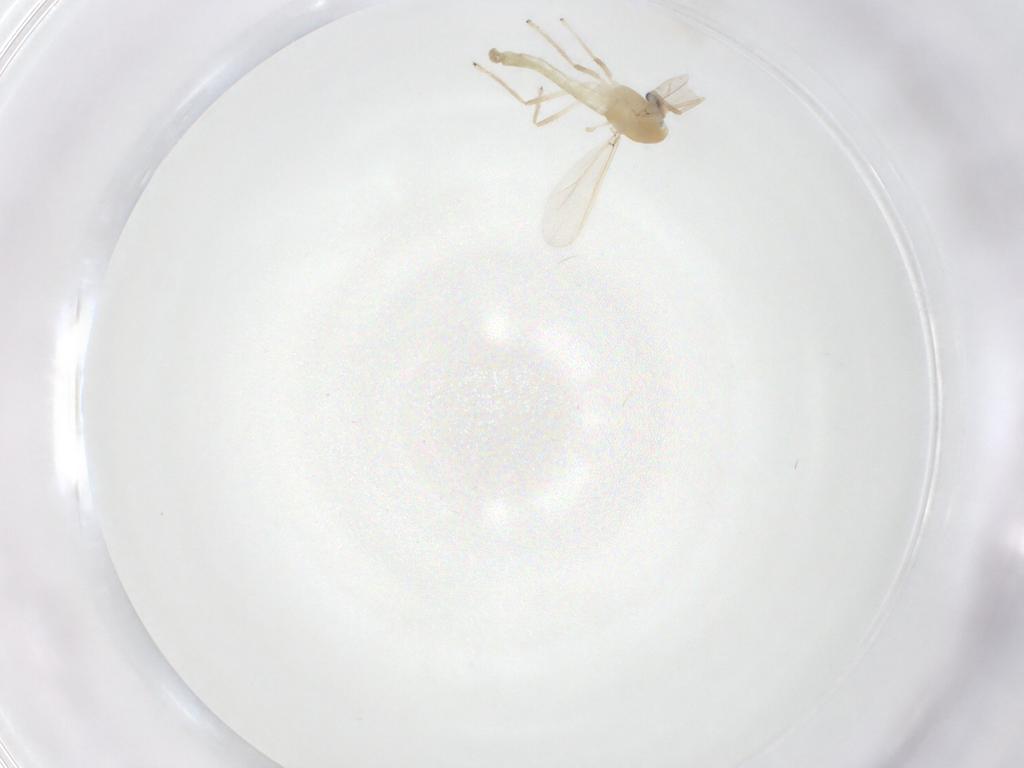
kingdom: Animalia
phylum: Arthropoda
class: Insecta
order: Diptera
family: Chironomidae
